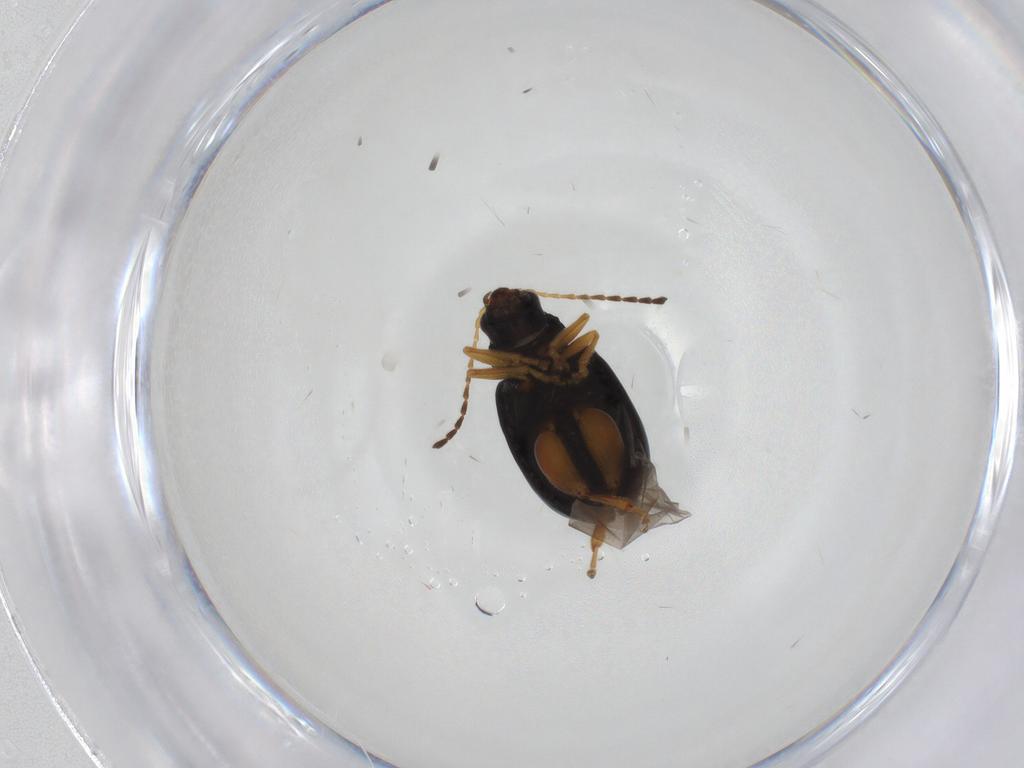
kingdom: Animalia
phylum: Arthropoda
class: Insecta
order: Coleoptera
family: Chrysomelidae
